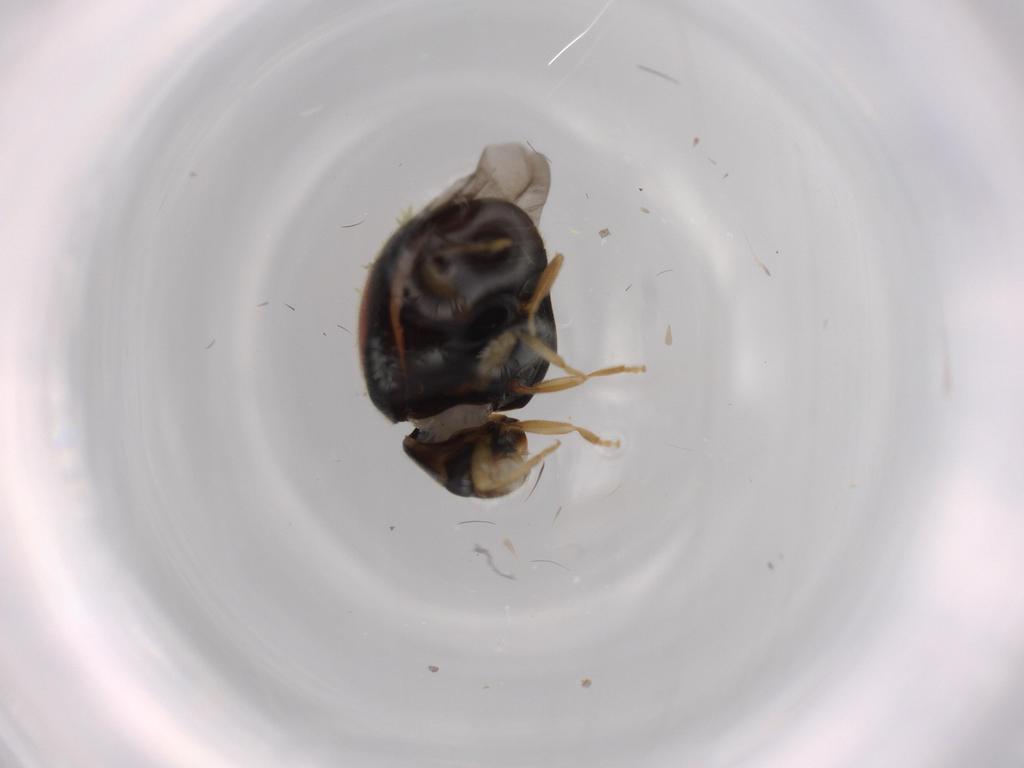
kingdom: Animalia
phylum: Arthropoda
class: Insecta
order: Coleoptera
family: Coccinellidae
